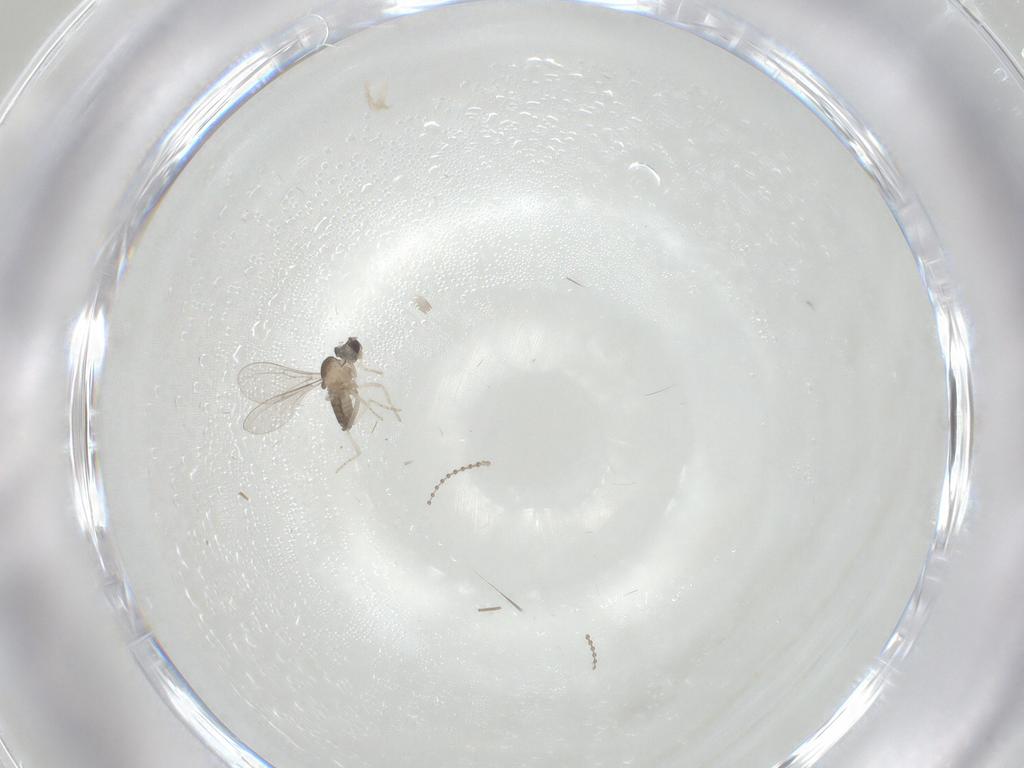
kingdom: Animalia
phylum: Arthropoda
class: Insecta
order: Diptera
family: Cecidomyiidae
